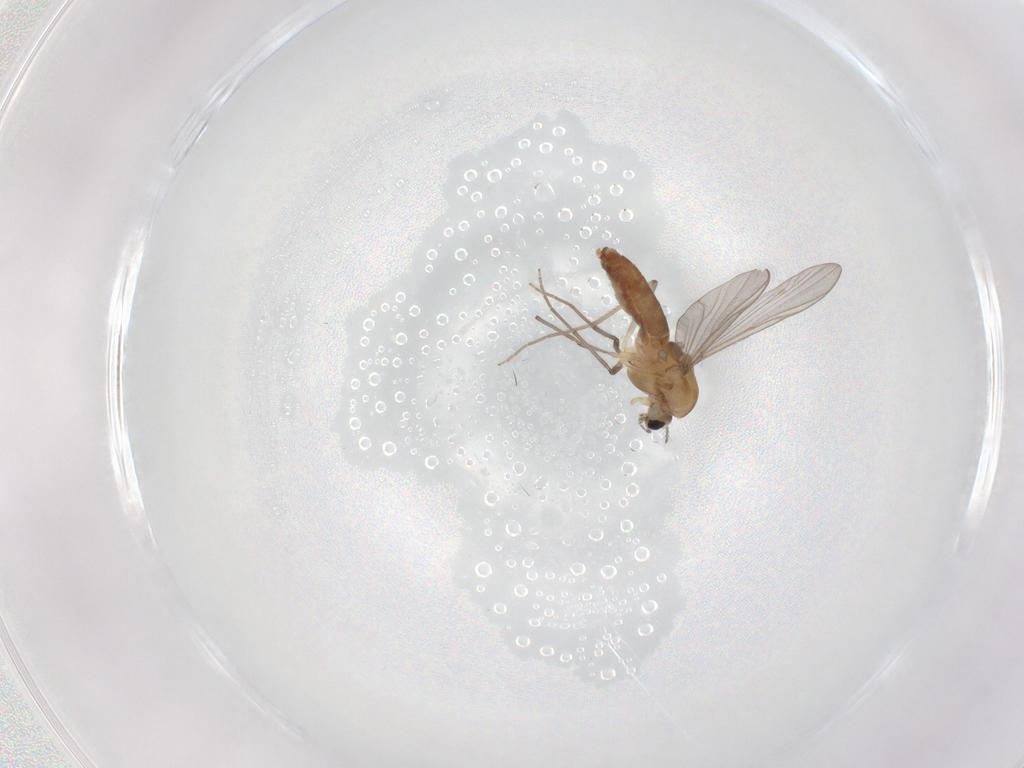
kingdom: Animalia
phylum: Arthropoda
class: Insecta
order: Diptera
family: Chironomidae
